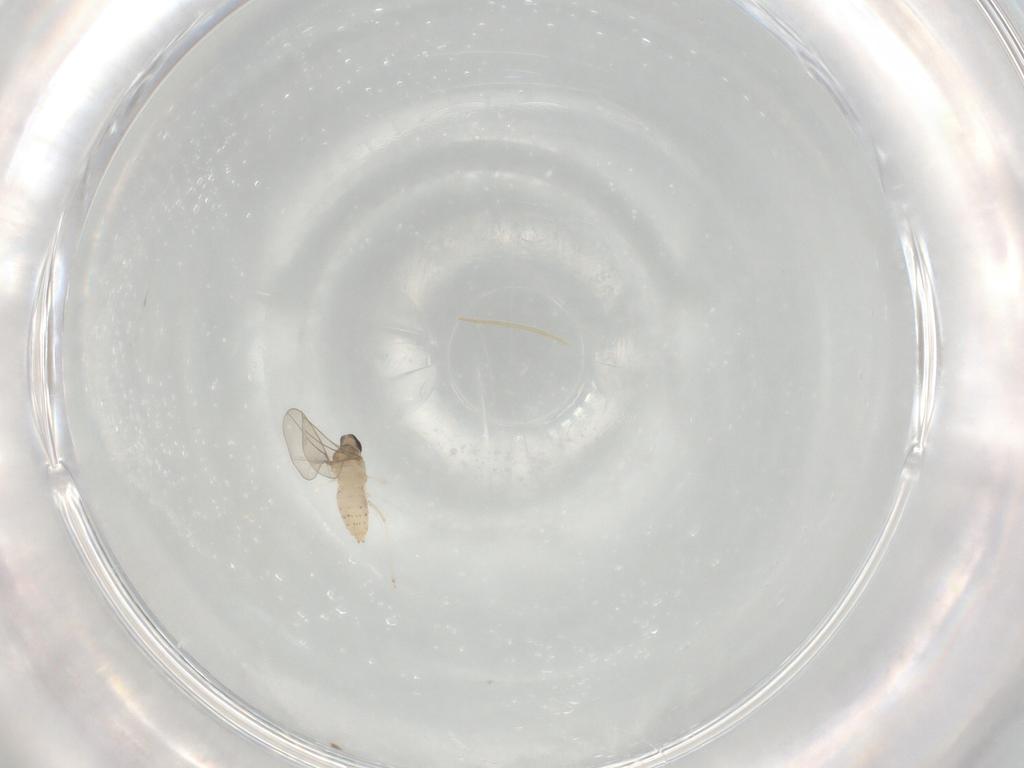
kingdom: Animalia
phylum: Arthropoda
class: Insecta
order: Diptera
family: Cecidomyiidae
